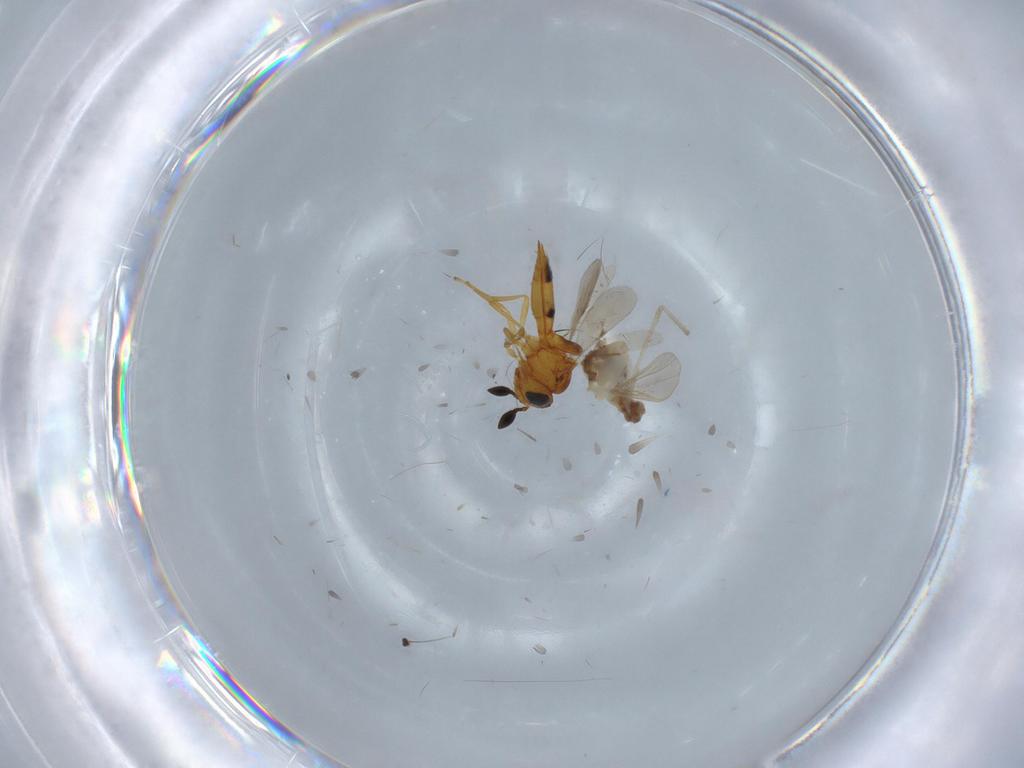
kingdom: Animalia
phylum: Arthropoda
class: Insecta
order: Hymenoptera
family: Scelionidae
